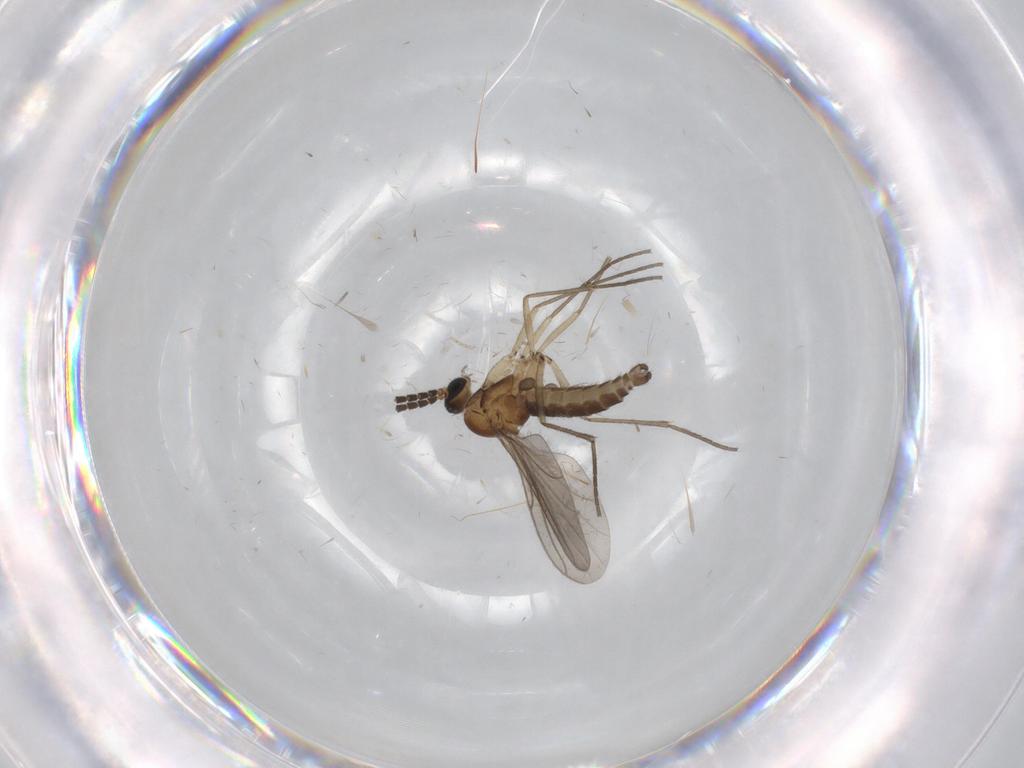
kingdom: Animalia
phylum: Arthropoda
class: Insecta
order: Diptera
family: Sciaridae
